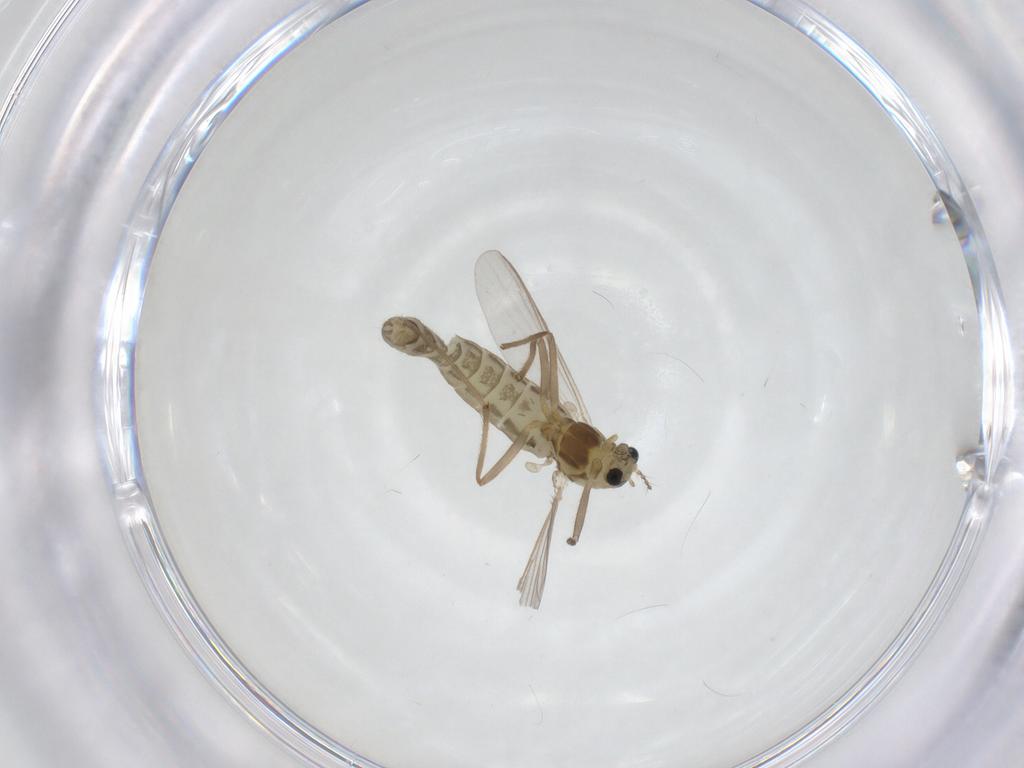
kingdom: Animalia
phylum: Arthropoda
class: Insecta
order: Diptera
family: Chironomidae
